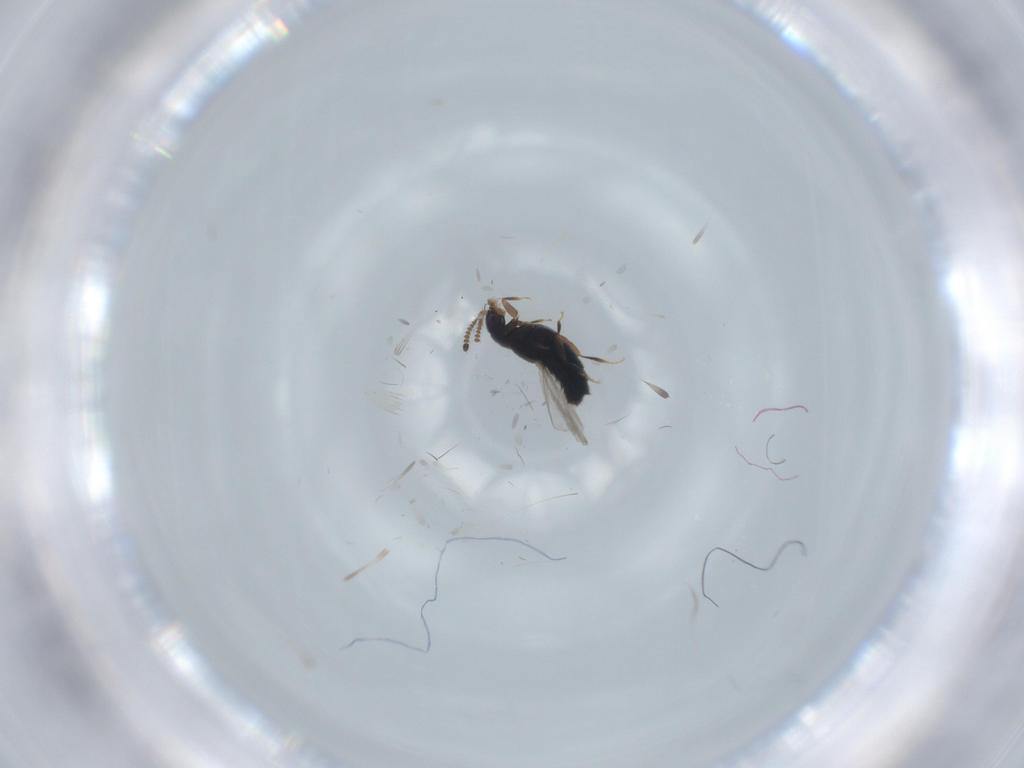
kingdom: Animalia
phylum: Arthropoda
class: Insecta
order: Coleoptera
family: Staphylinidae
